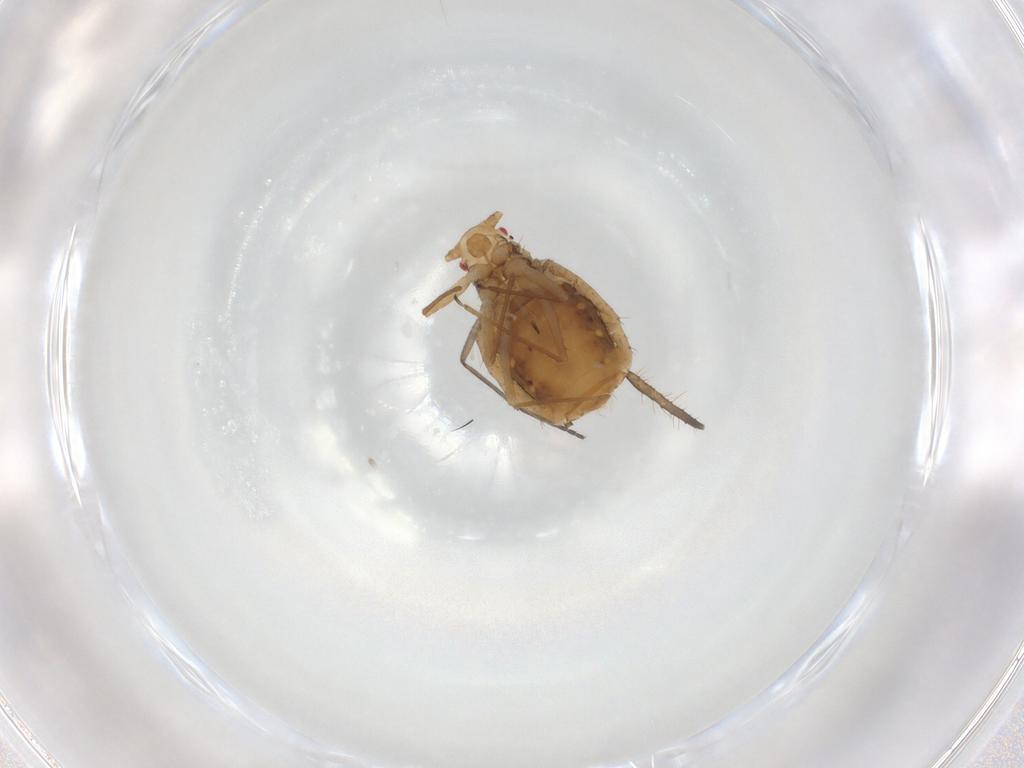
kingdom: Animalia
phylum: Arthropoda
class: Insecta
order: Hemiptera
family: Aphididae
